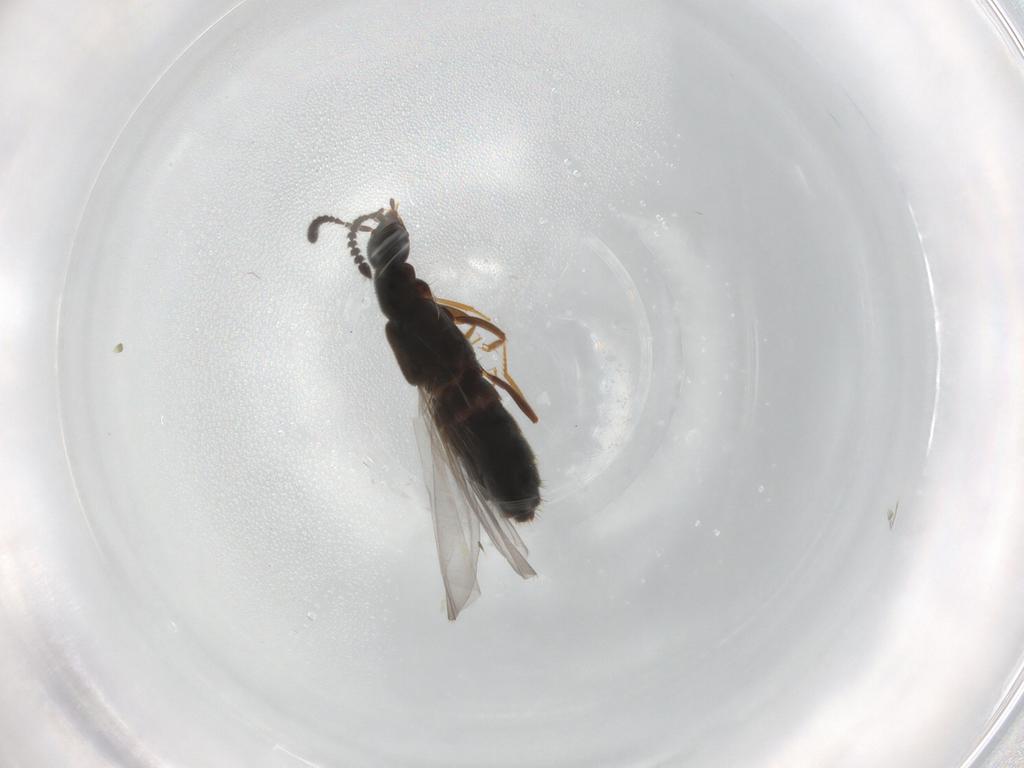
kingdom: Animalia
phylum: Arthropoda
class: Insecta
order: Coleoptera
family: Staphylinidae
